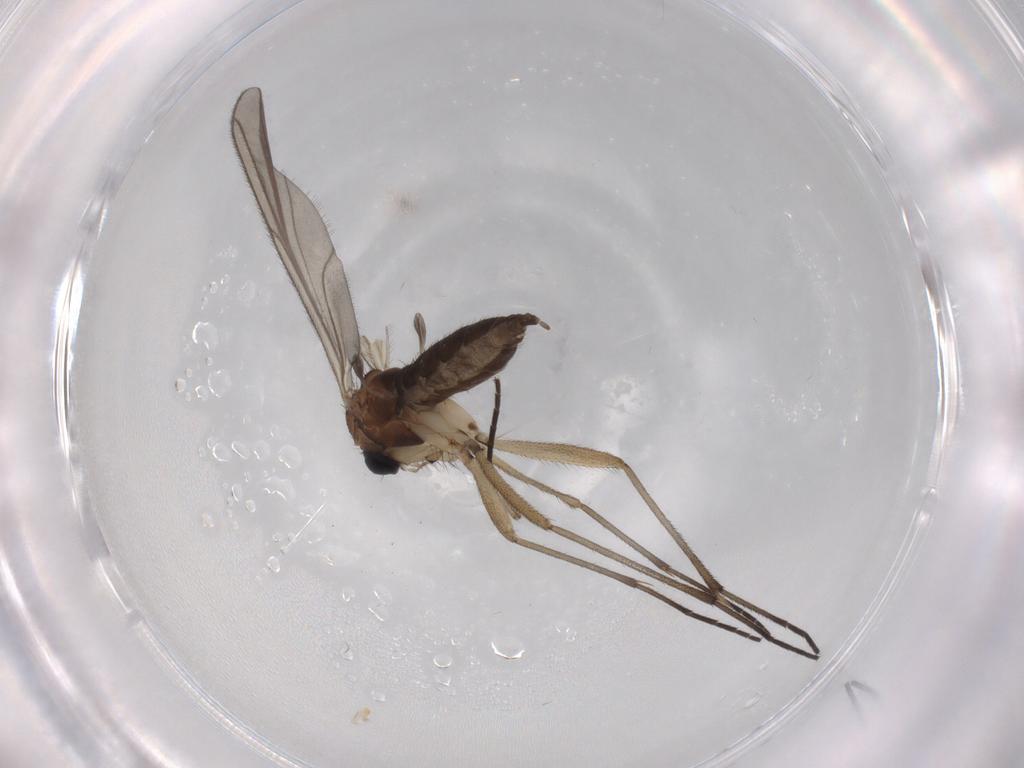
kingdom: Animalia
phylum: Arthropoda
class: Insecta
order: Diptera
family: Sciaridae
